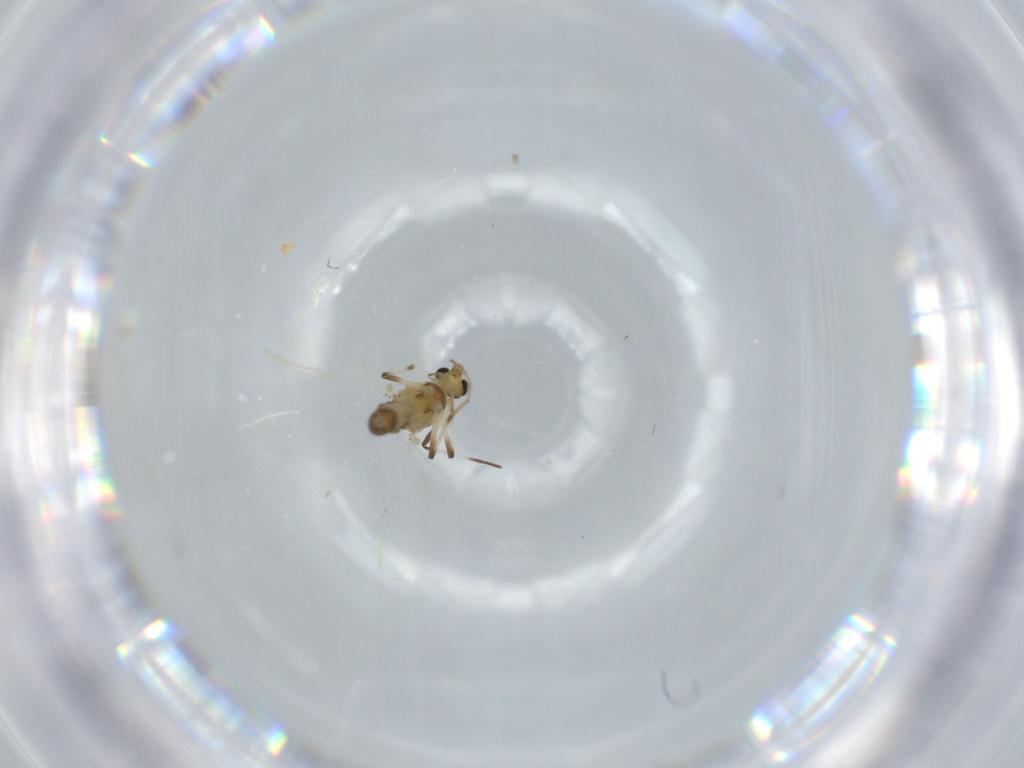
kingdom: Animalia
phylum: Arthropoda
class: Insecta
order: Diptera
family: Chironomidae
